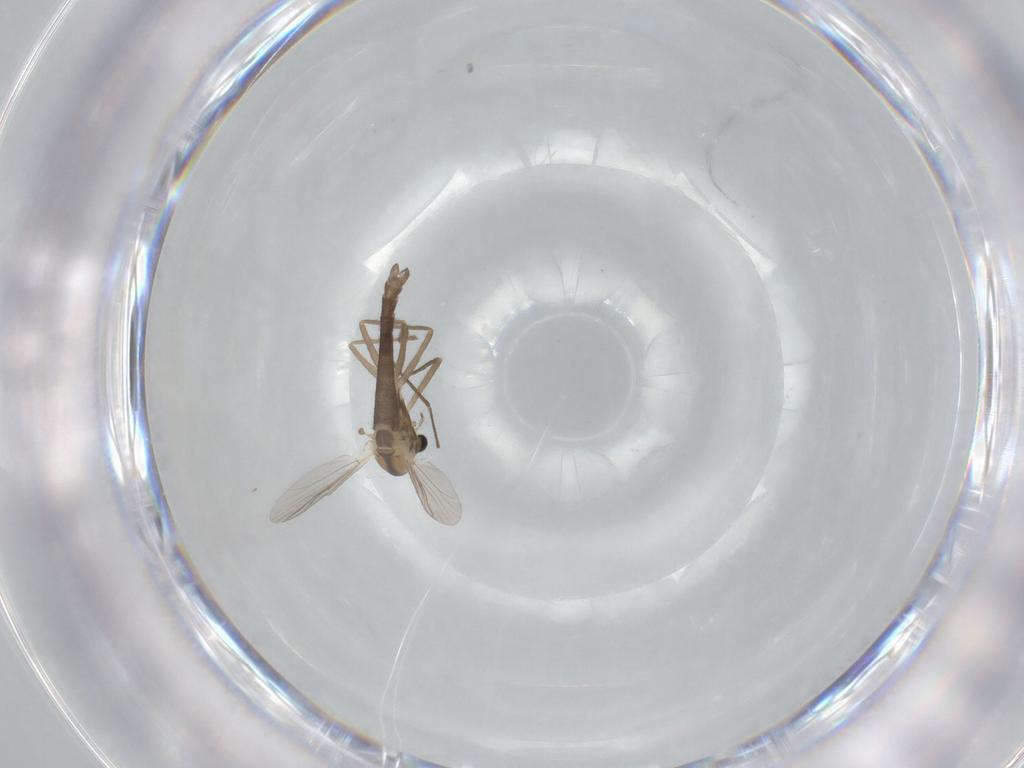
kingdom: Animalia
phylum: Arthropoda
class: Insecta
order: Diptera
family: Chironomidae
